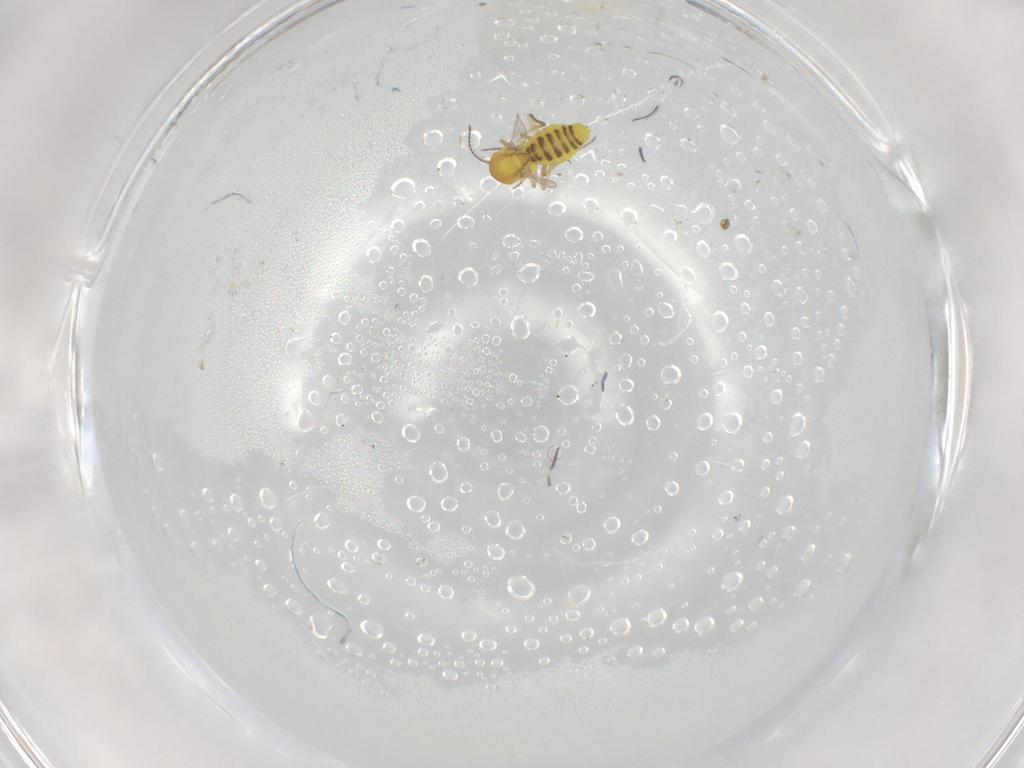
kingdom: Animalia
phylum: Arthropoda
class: Insecta
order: Diptera
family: Ceratopogonidae
